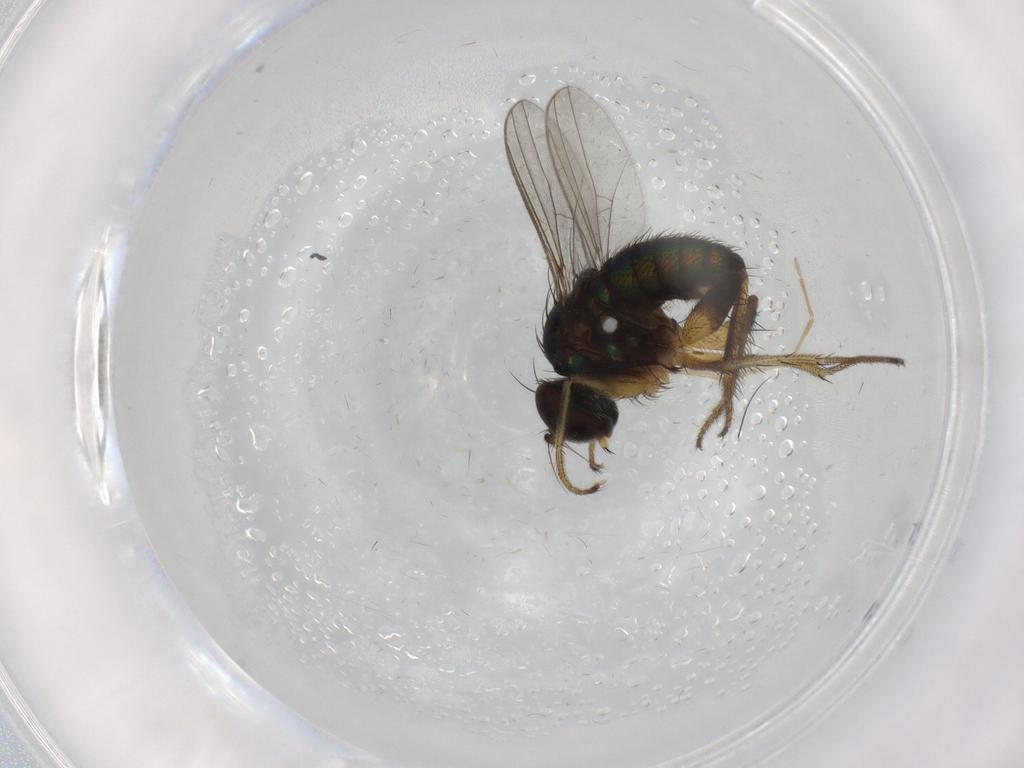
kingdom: Animalia
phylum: Arthropoda
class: Insecta
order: Diptera
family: Dolichopodidae
